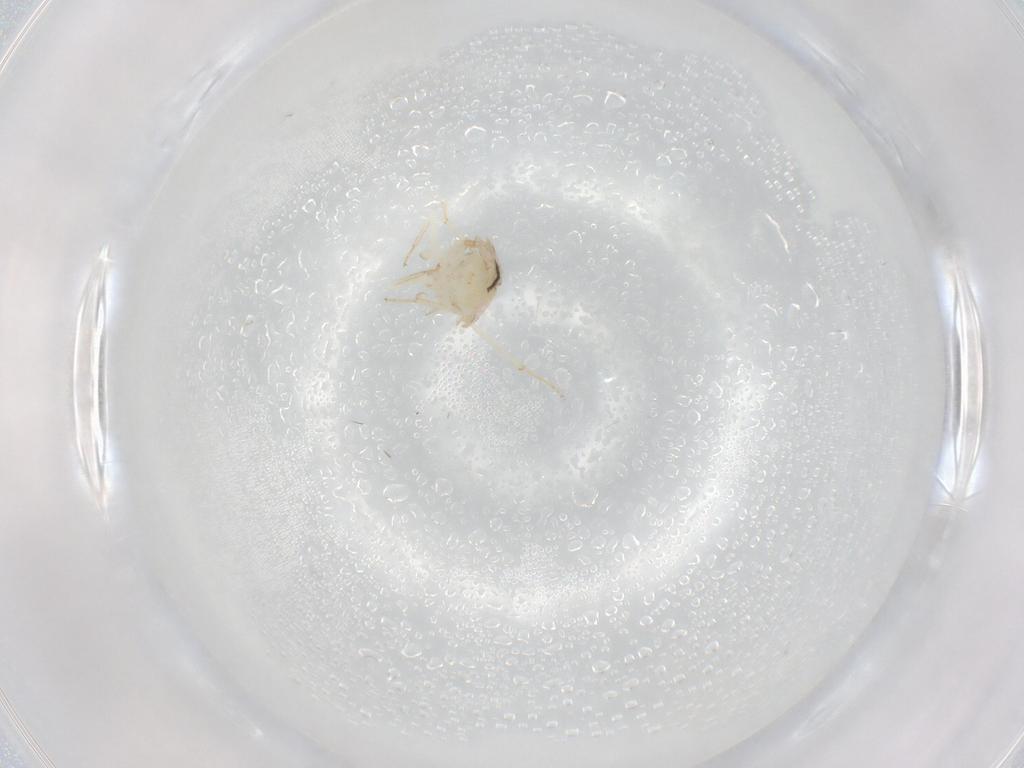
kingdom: Animalia
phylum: Arthropoda
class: Insecta
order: Psocodea
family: Lepidopsocidae
